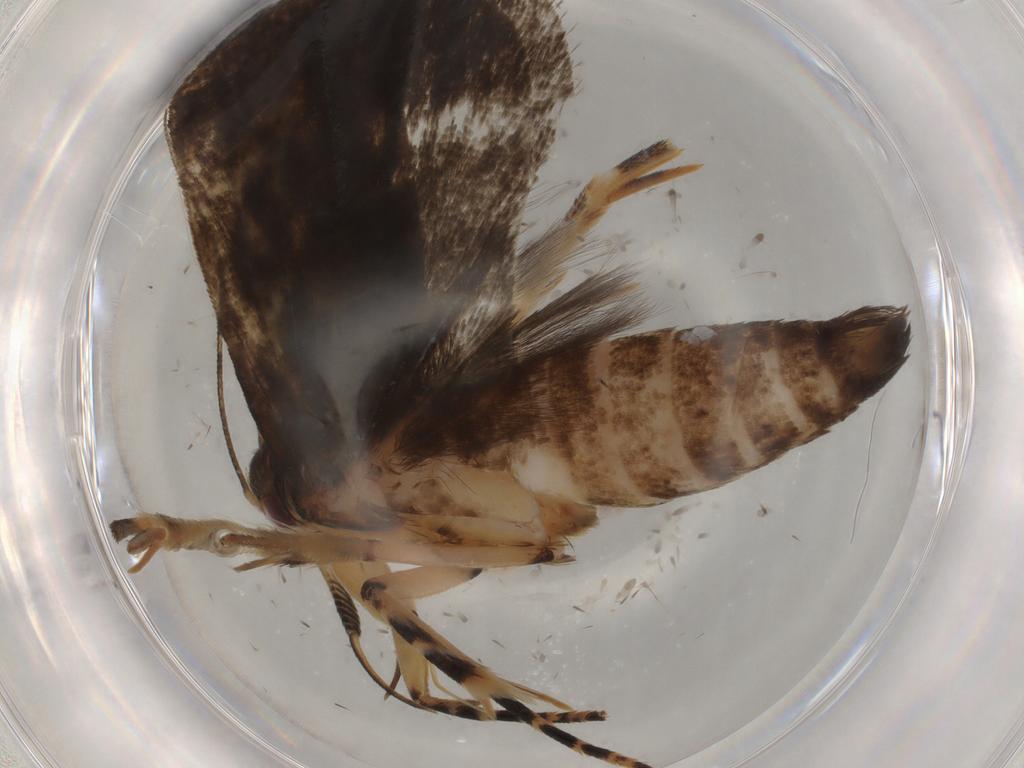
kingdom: Animalia
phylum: Arthropoda
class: Insecta
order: Lepidoptera
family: Gelechiidae
